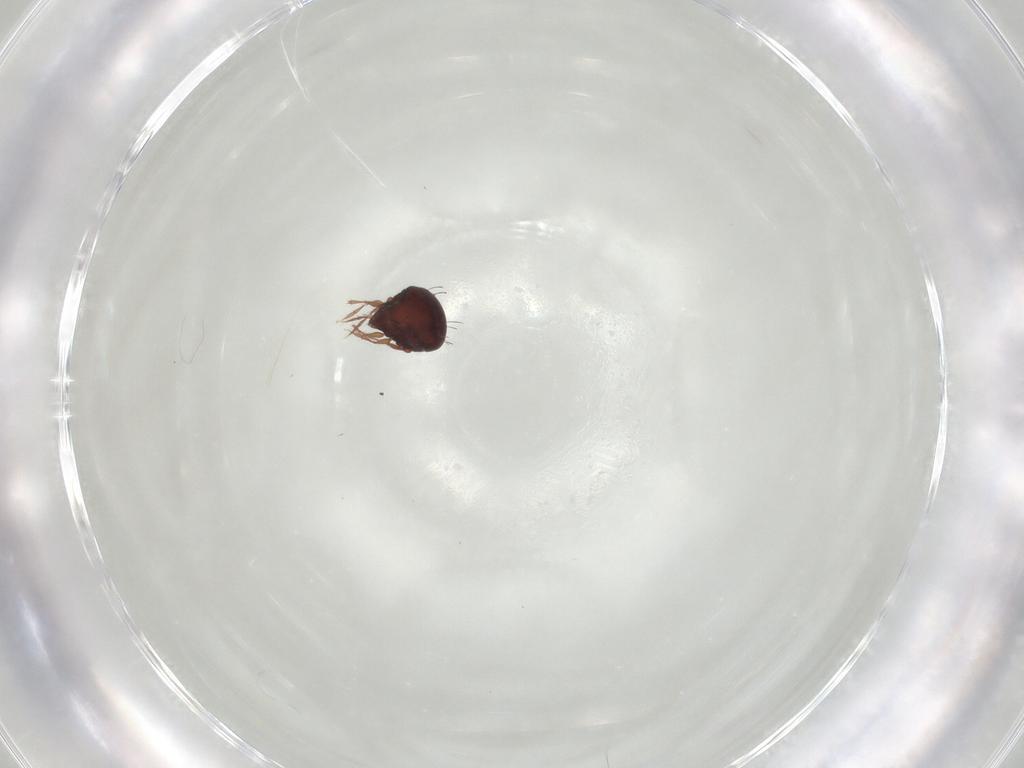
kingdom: Animalia
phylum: Arthropoda
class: Arachnida
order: Sarcoptiformes
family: Caloppiidae
